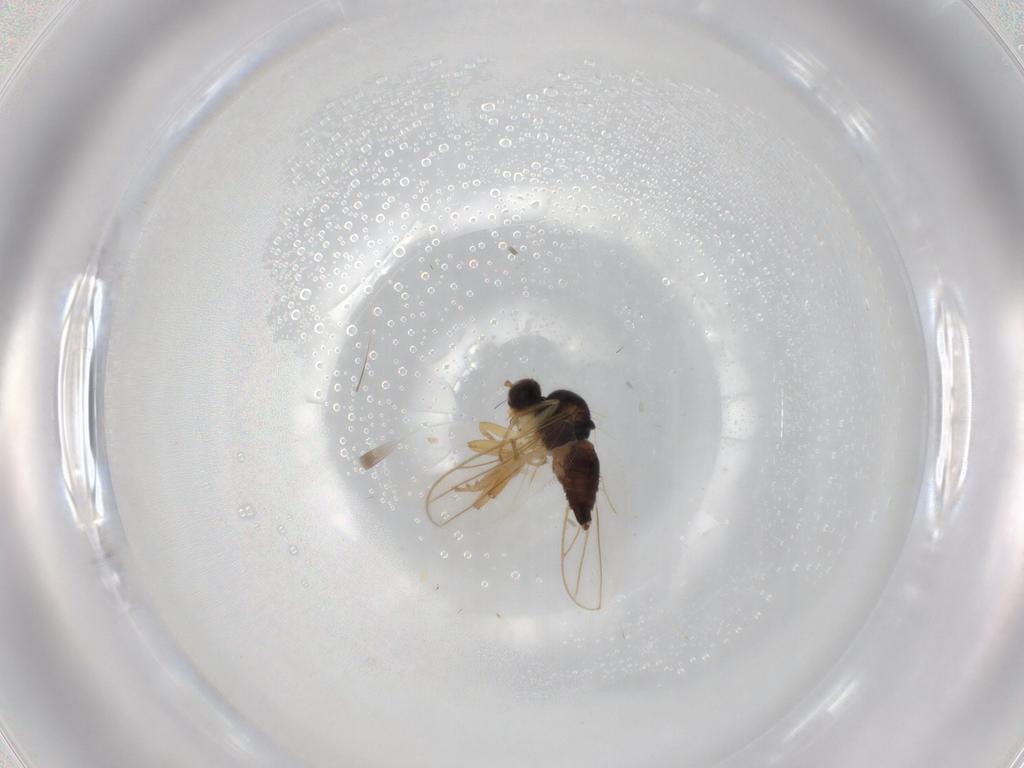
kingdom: Animalia
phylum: Arthropoda
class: Insecta
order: Diptera
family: Hybotidae
